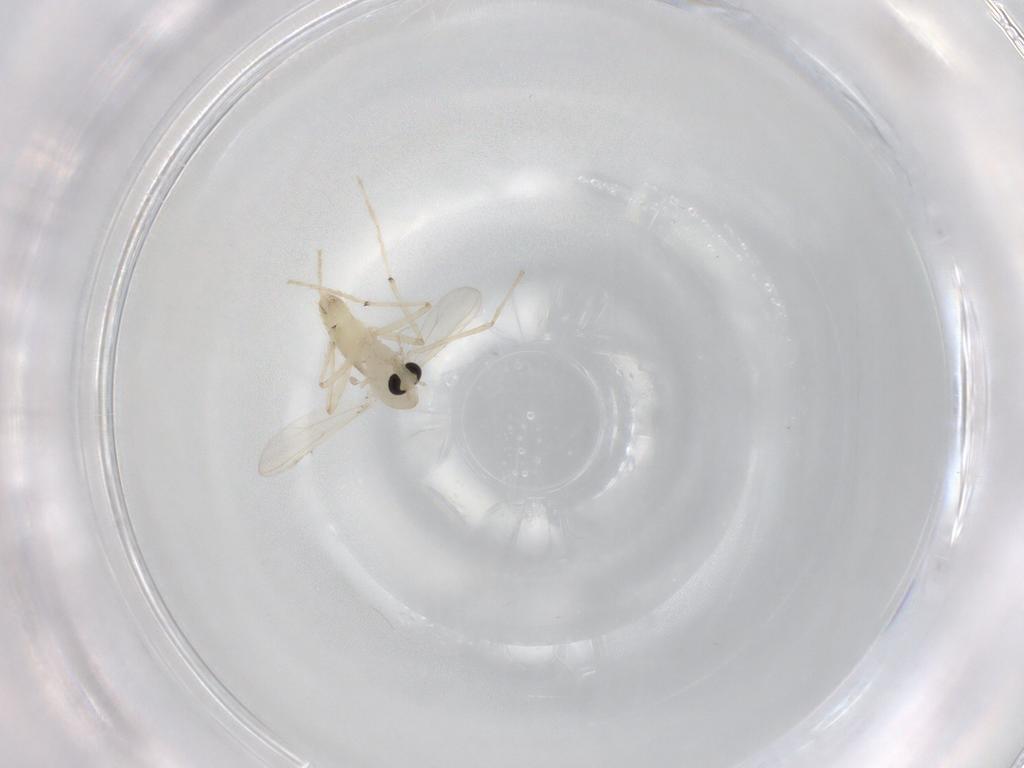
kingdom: Animalia
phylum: Arthropoda
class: Insecta
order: Diptera
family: Chironomidae
